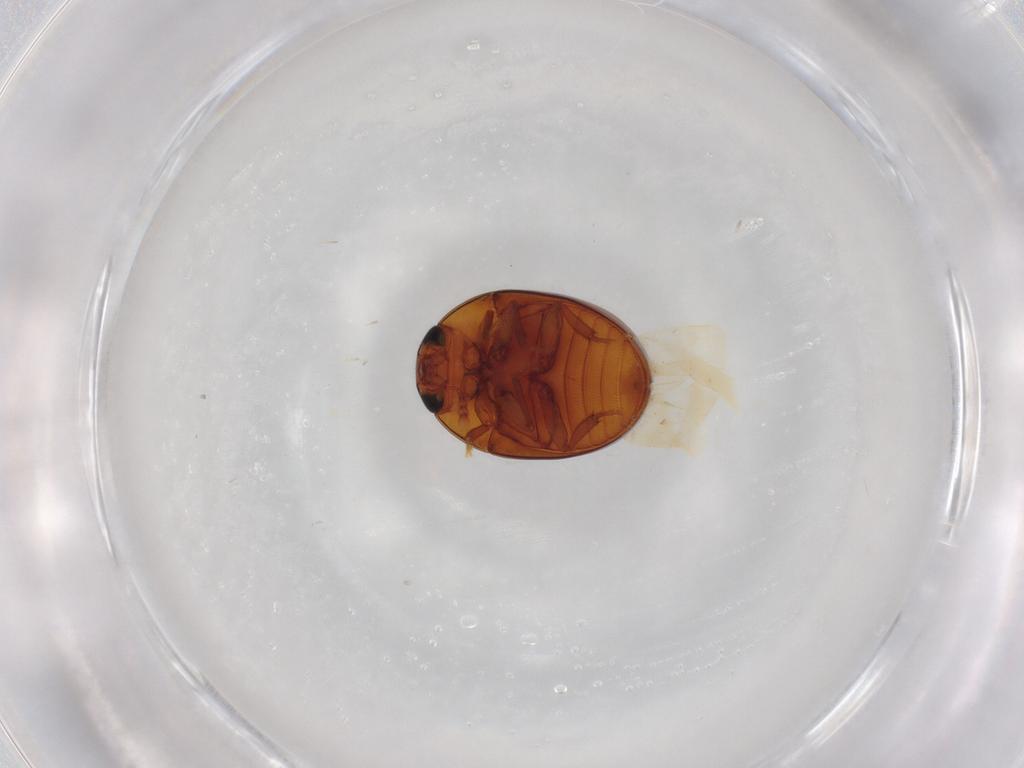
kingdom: Animalia
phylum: Arthropoda
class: Insecta
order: Coleoptera
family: Phalacridae
